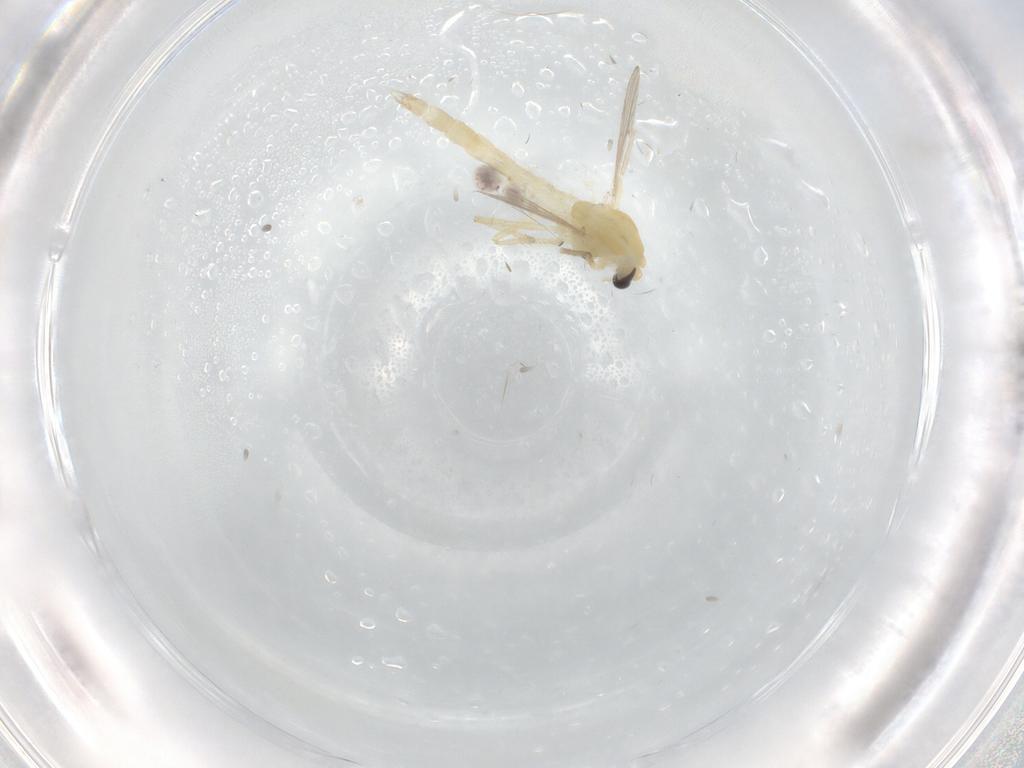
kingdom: Animalia
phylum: Arthropoda
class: Insecta
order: Diptera
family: Chironomidae
